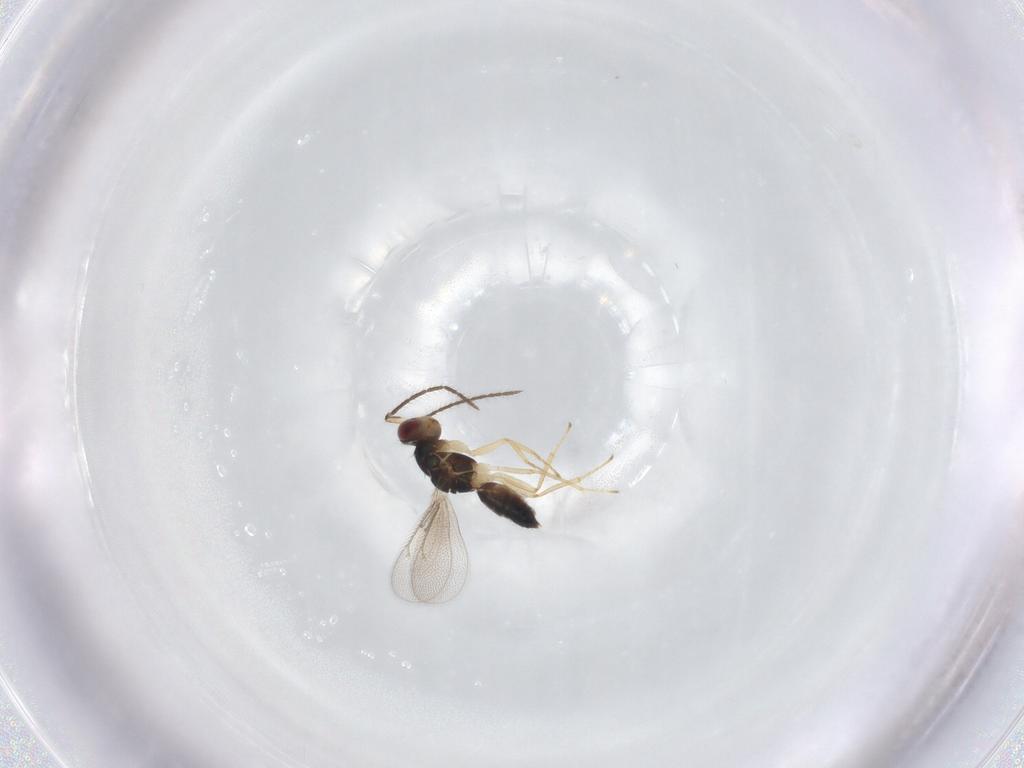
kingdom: Animalia
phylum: Arthropoda
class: Insecta
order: Hymenoptera
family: Eulophidae
